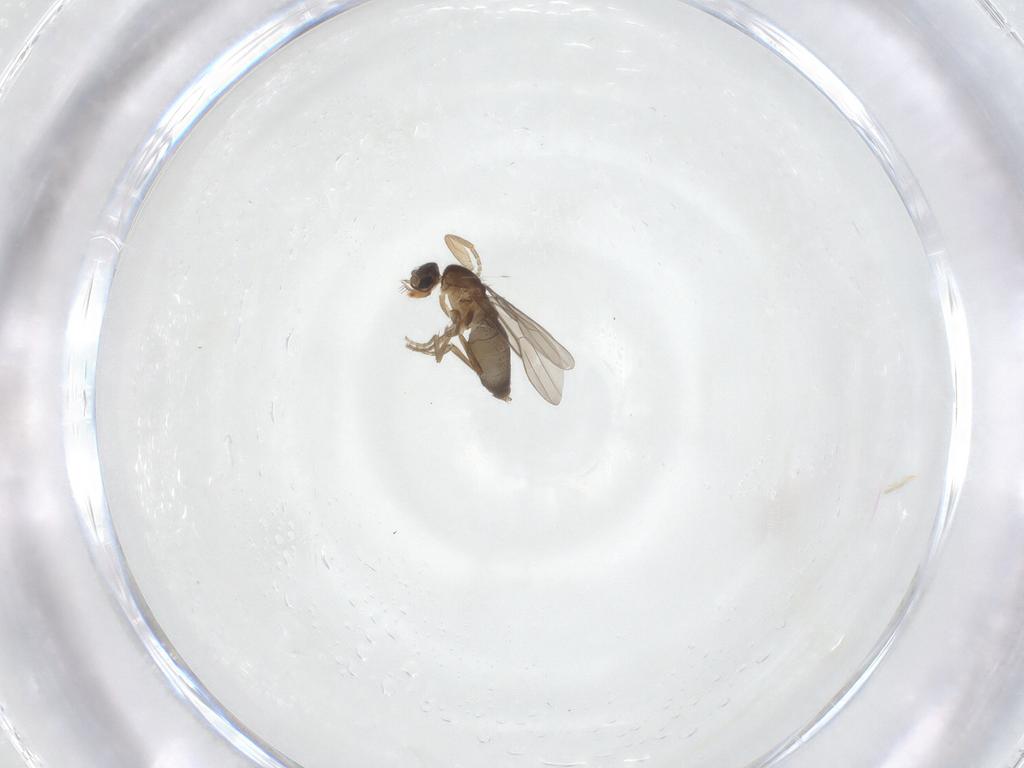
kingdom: Animalia
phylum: Arthropoda
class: Insecta
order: Diptera
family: Phoridae
